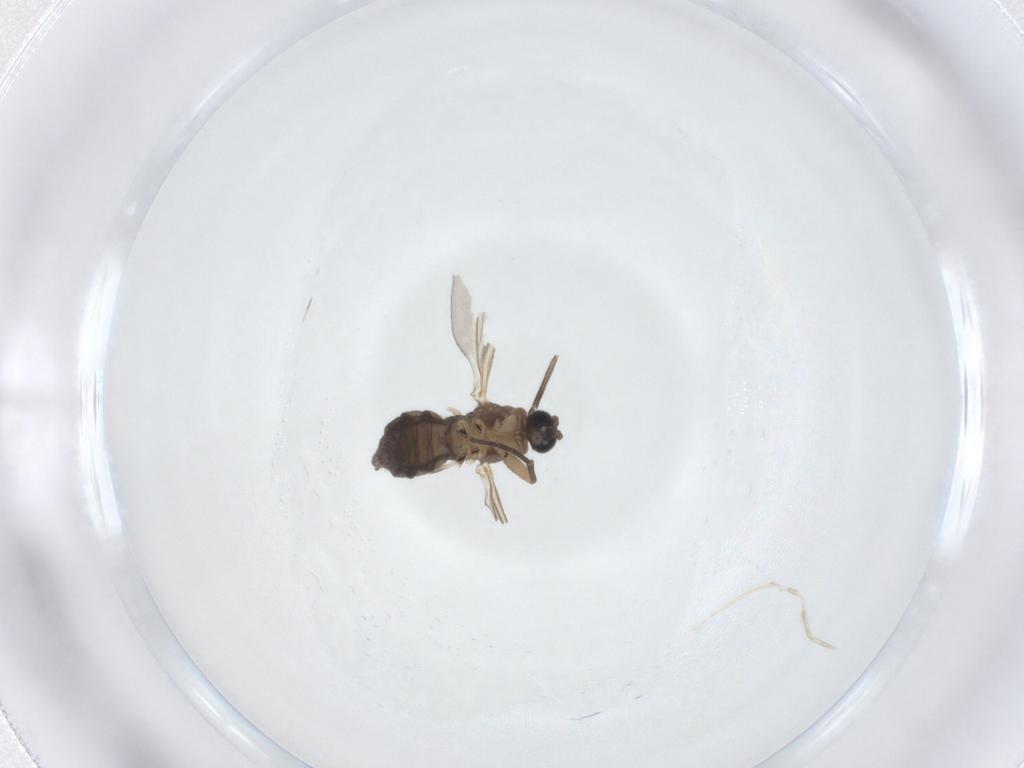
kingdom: Animalia
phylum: Arthropoda
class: Insecta
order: Diptera
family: Sciaridae
